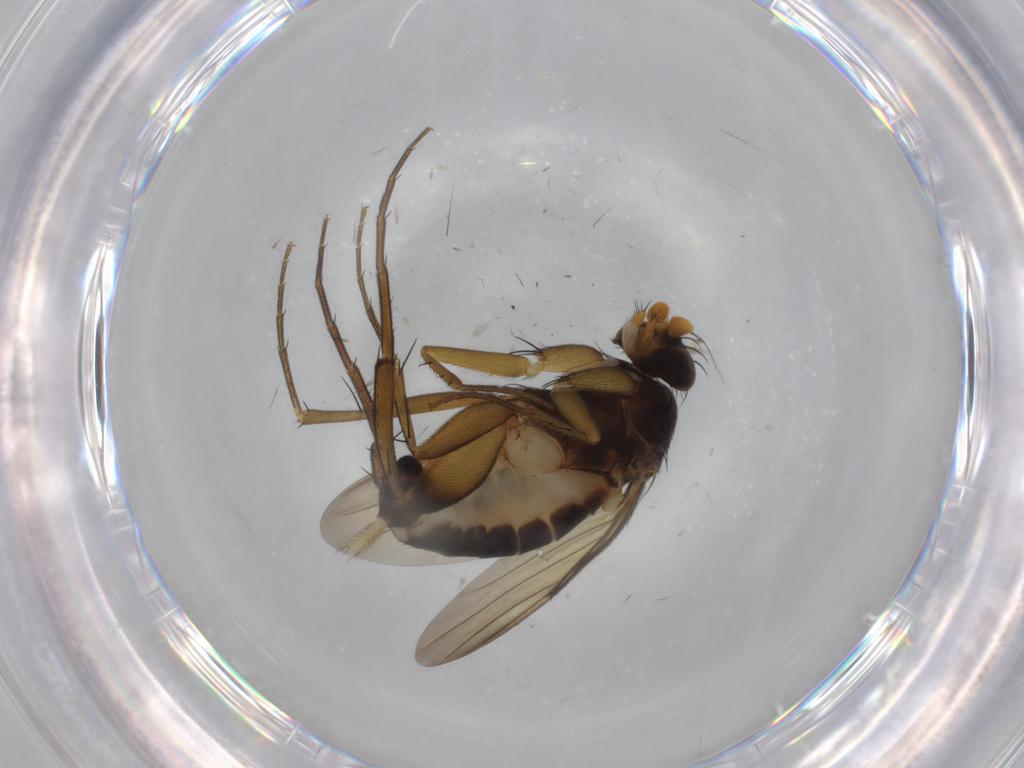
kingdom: Animalia
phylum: Arthropoda
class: Insecta
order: Diptera
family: Phoridae
